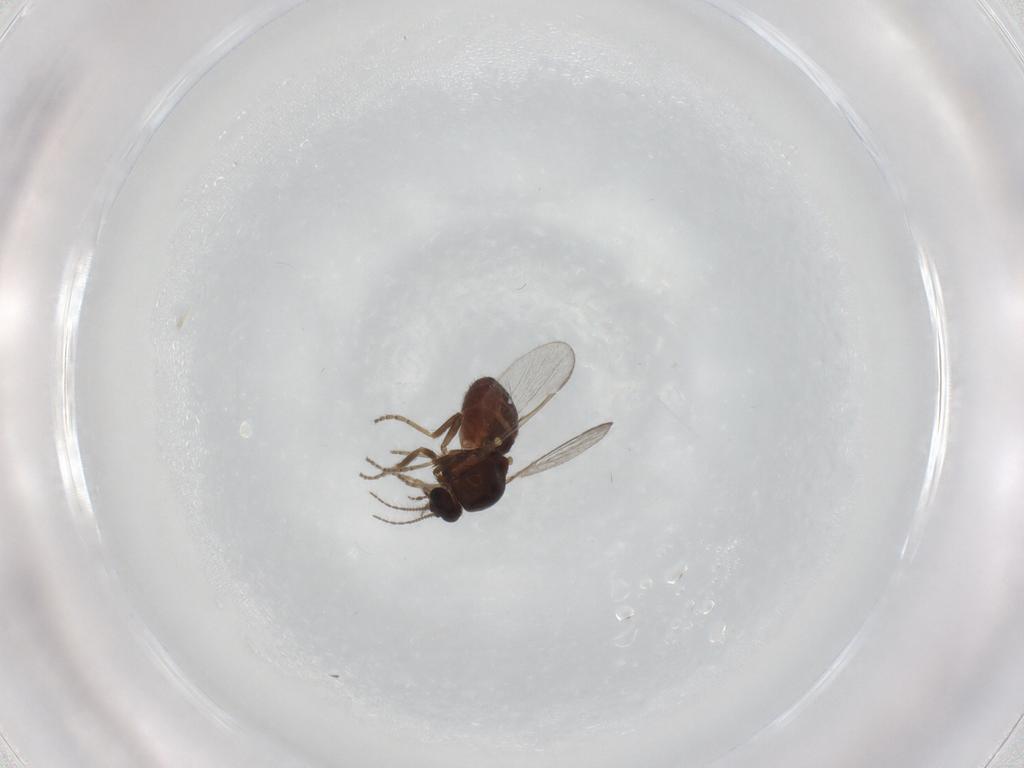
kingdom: Animalia
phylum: Arthropoda
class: Insecta
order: Diptera
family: Ceratopogonidae
